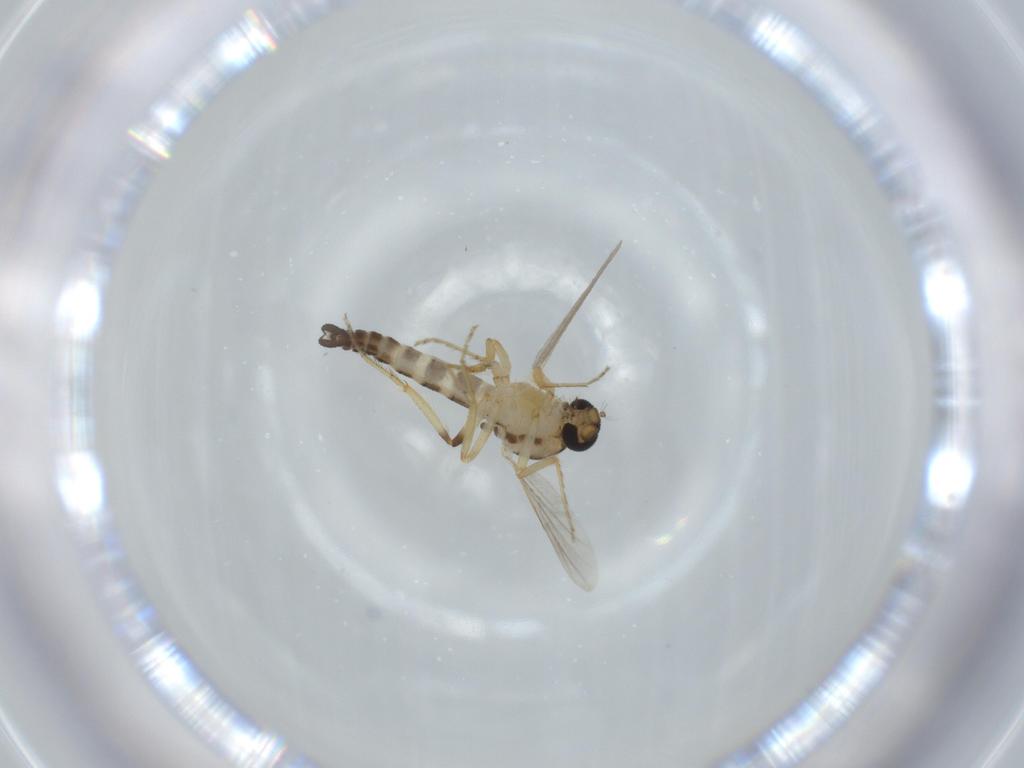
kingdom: Animalia
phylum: Arthropoda
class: Insecta
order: Diptera
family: Ceratopogonidae
